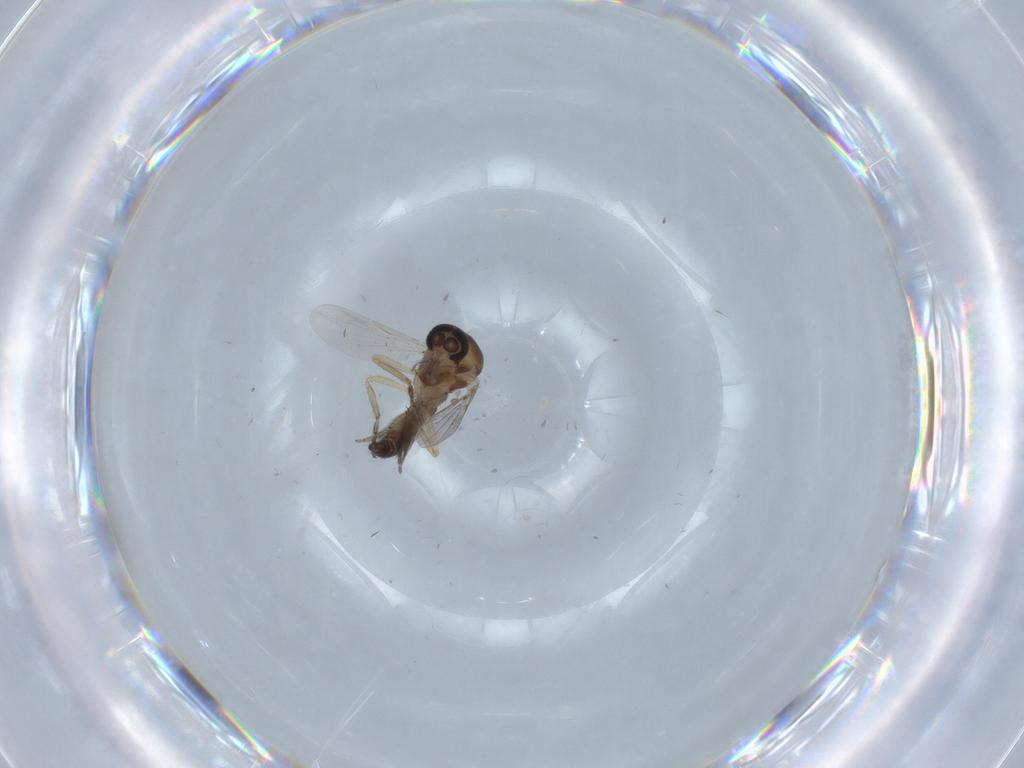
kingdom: Animalia
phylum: Arthropoda
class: Insecta
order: Diptera
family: Ceratopogonidae
